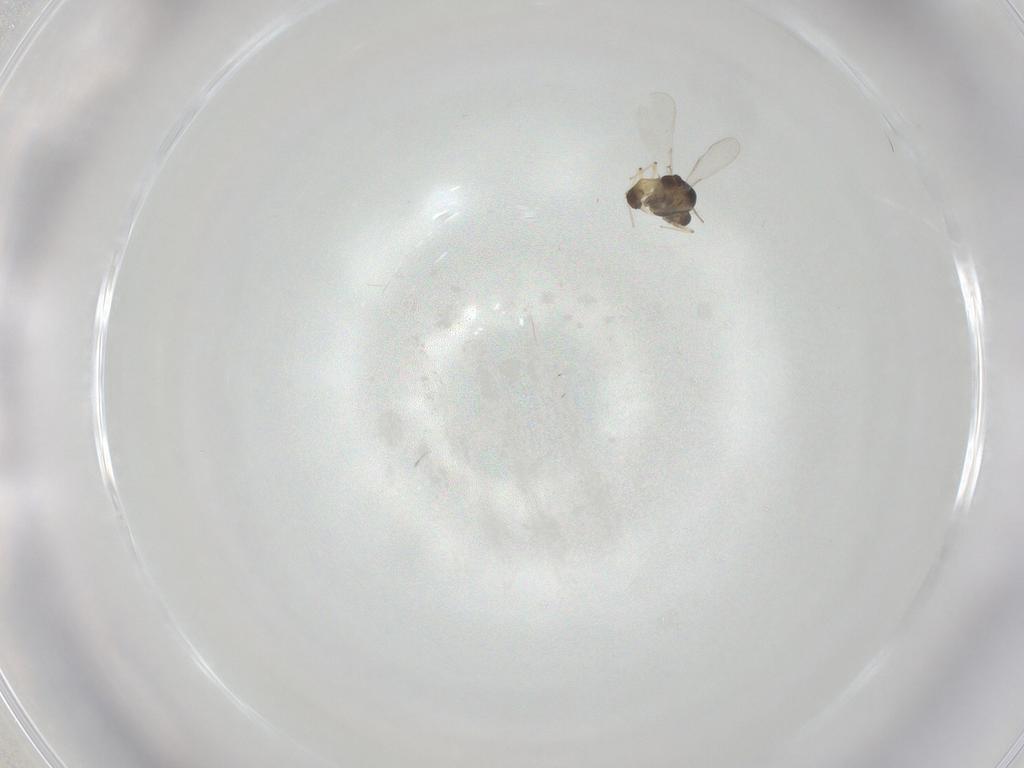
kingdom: Animalia
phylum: Arthropoda
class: Insecta
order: Diptera
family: Chironomidae
